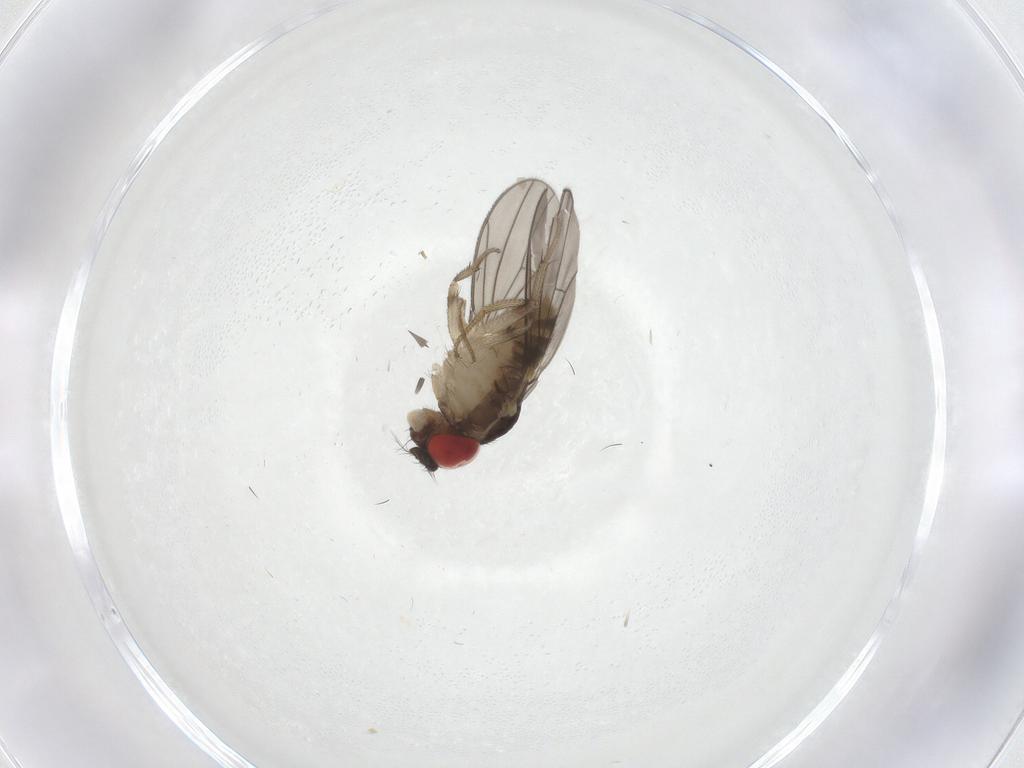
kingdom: Animalia
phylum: Arthropoda
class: Insecta
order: Diptera
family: Drosophilidae
